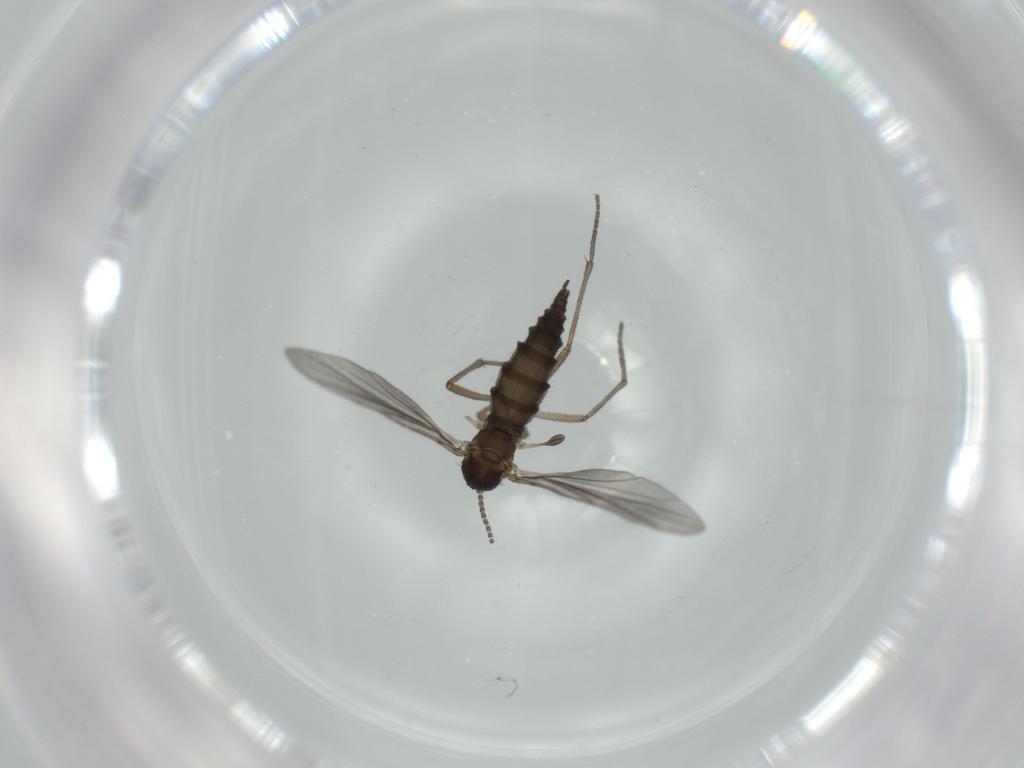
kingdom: Animalia
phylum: Arthropoda
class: Insecta
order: Diptera
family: Sciaridae
